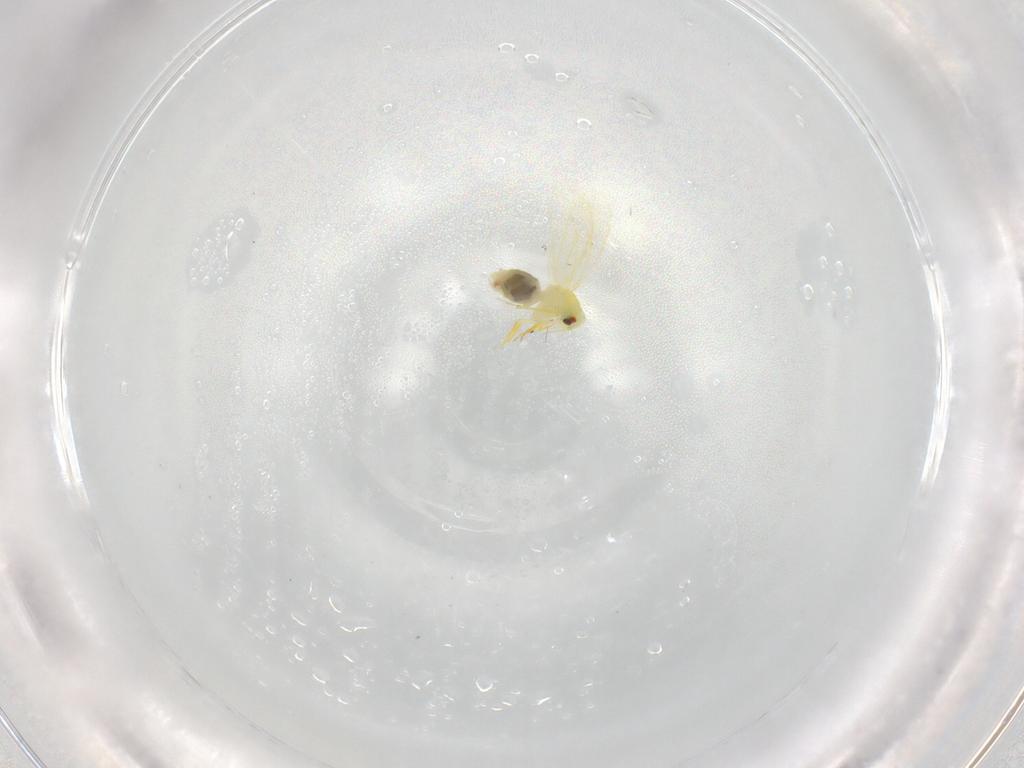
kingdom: Animalia
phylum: Arthropoda
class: Insecta
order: Hemiptera
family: Aleyrodidae
